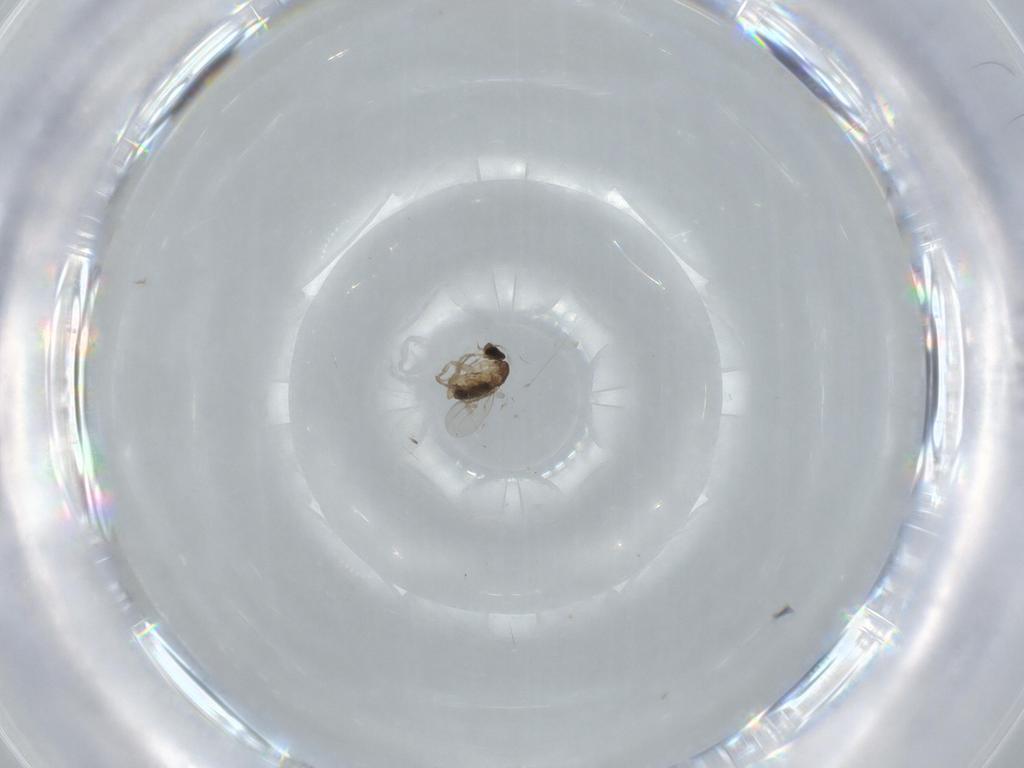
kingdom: Animalia
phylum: Arthropoda
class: Insecta
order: Diptera
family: Phoridae
